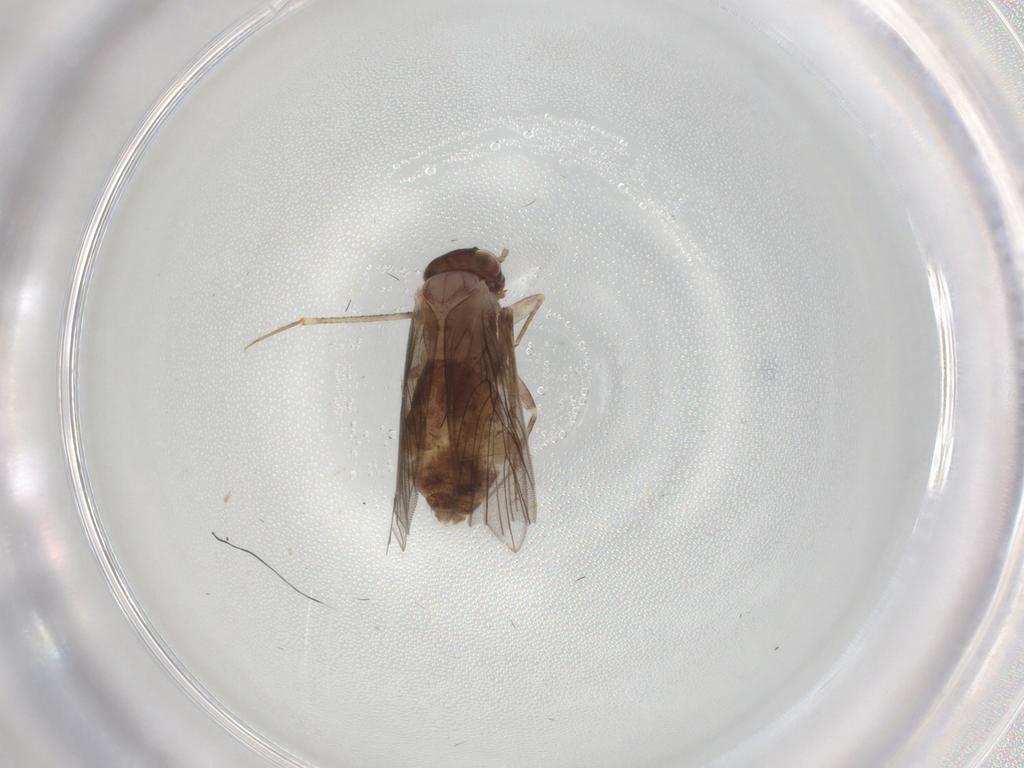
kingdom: Animalia
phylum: Arthropoda
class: Insecta
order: Psocodea
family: Lepidopsocidae
